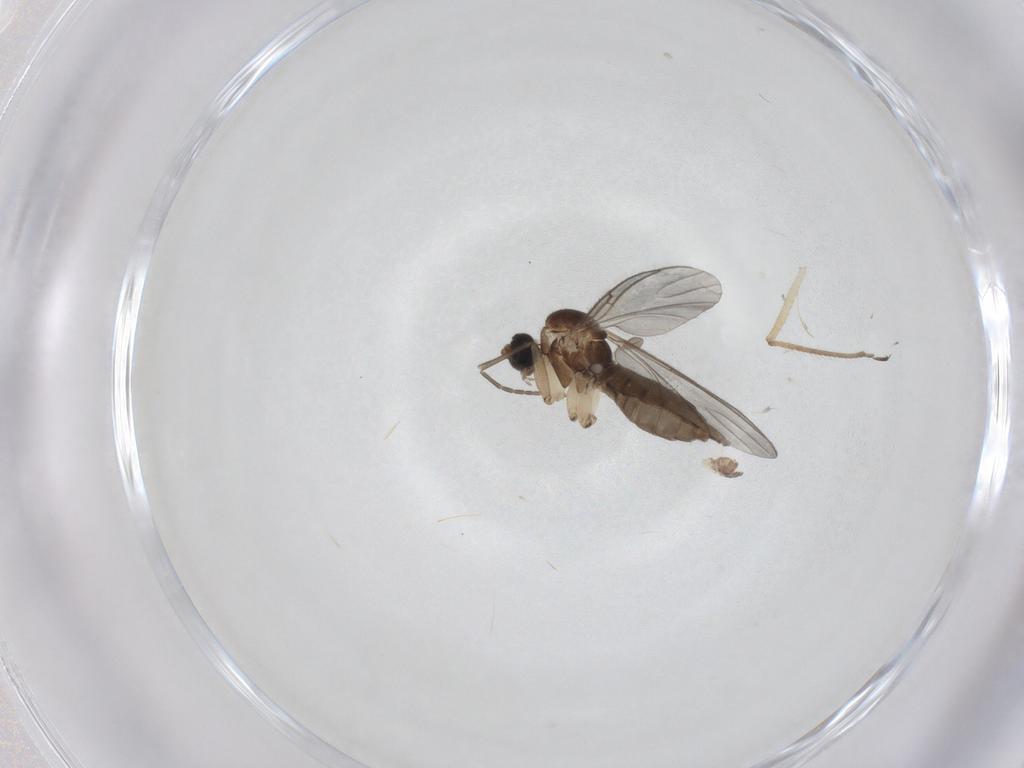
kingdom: Animalia
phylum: Arthropoda
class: Insecta
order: Diptera
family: Sciaridae
